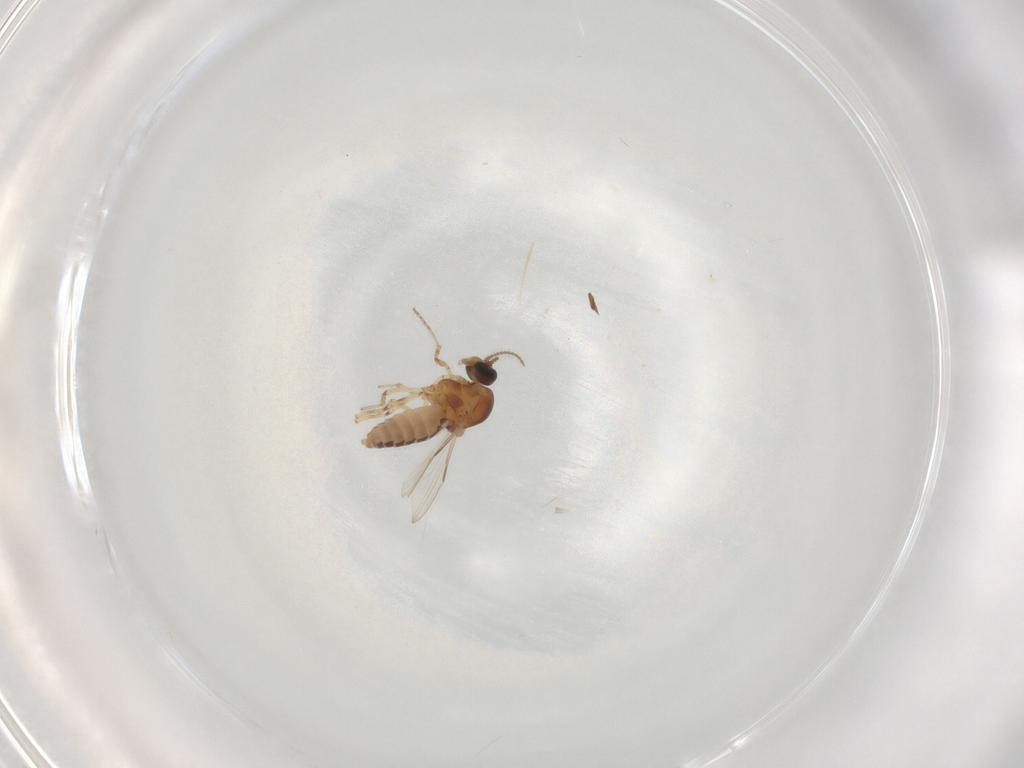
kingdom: Animalia
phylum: Arthropoda
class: Insecta
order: Diptera
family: Ceratopogonidae
